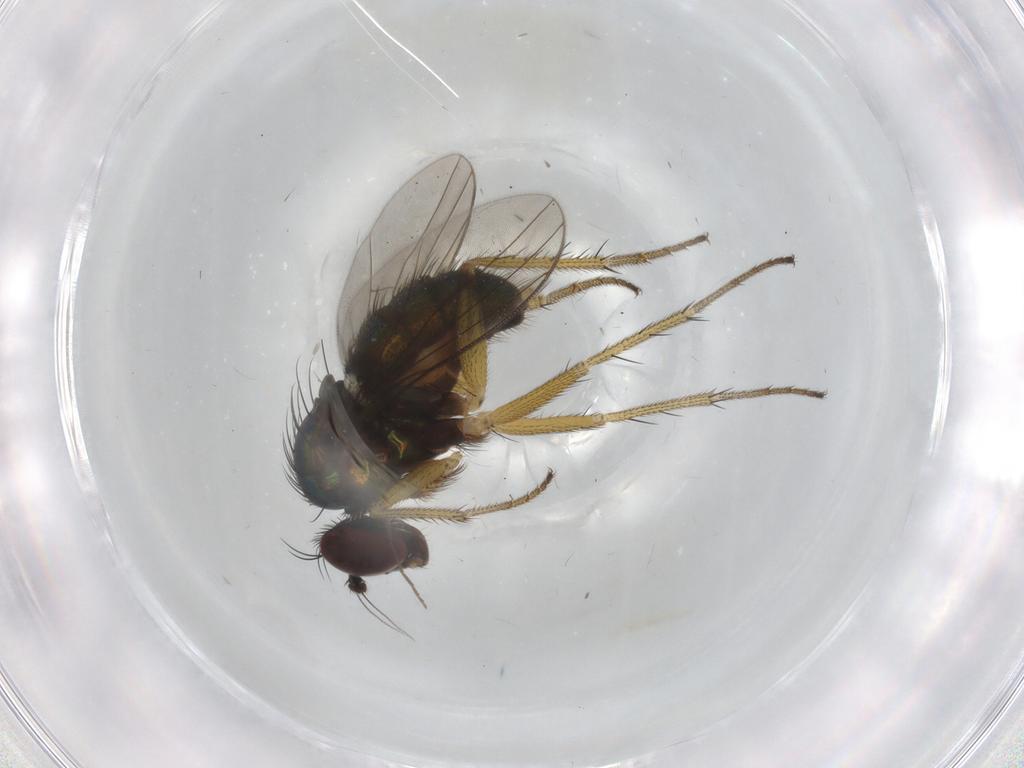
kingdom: Animalia
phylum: Arthropoda
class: Insecta
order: Diptera
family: Dolichopodidae
